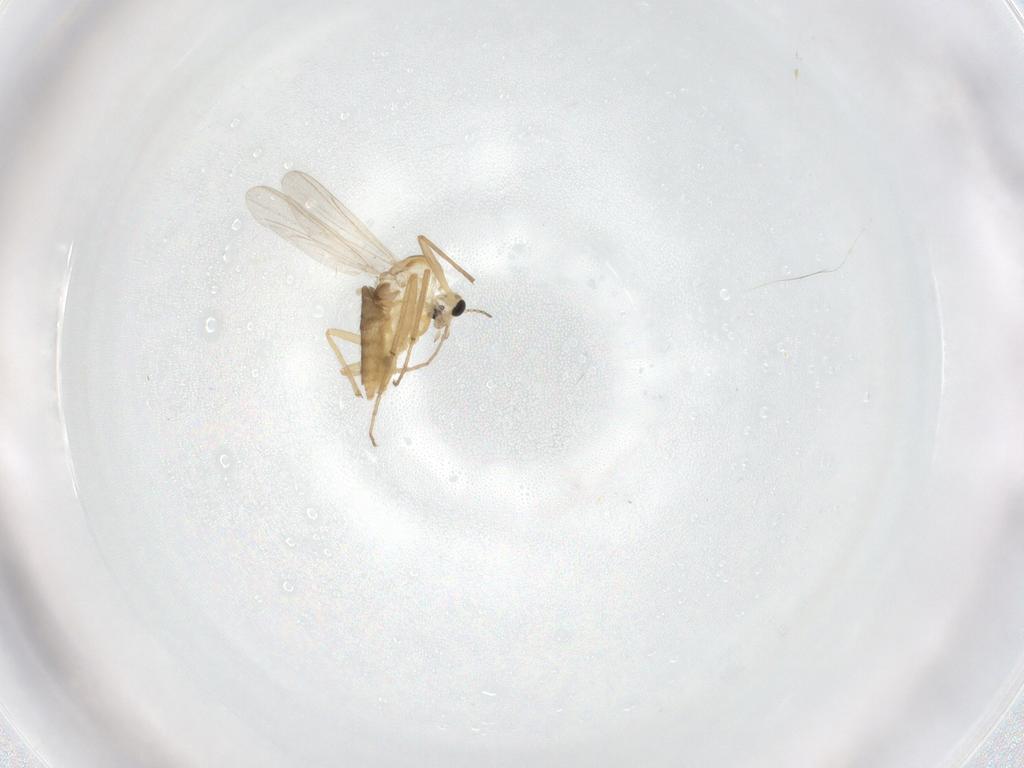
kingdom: Animalia
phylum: Arthropoda
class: Insecta
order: Diptera
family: Chironomidae
